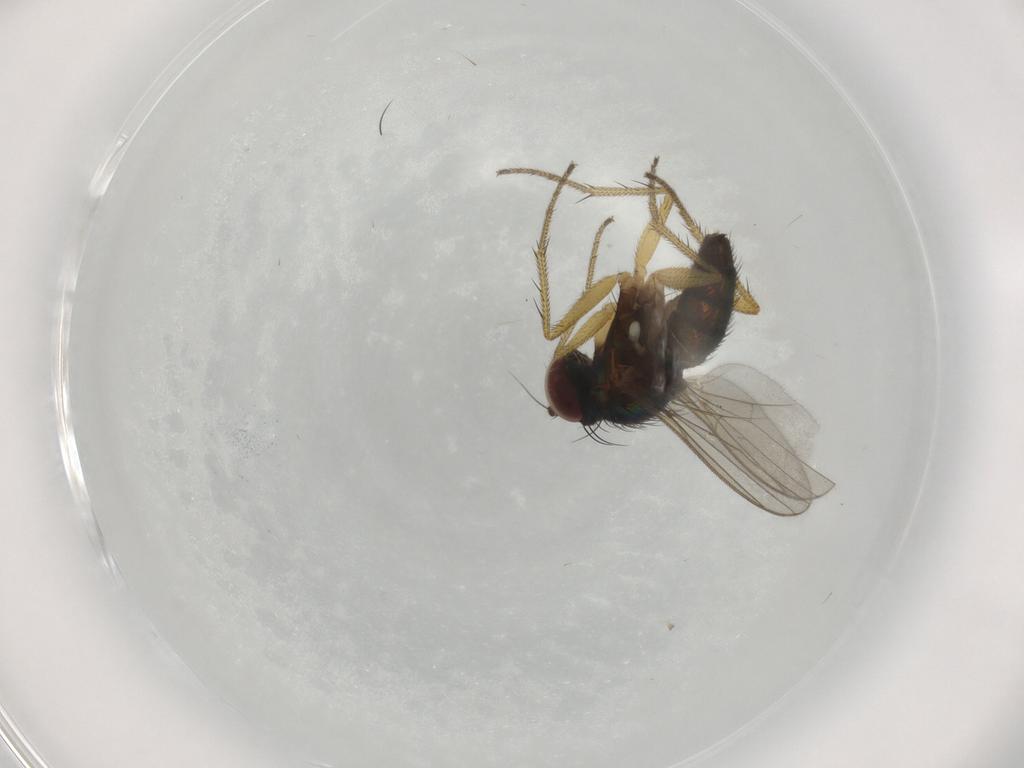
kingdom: Animalia
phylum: Arthropoda
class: Insecta
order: Diptera
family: Dolichopodidae
